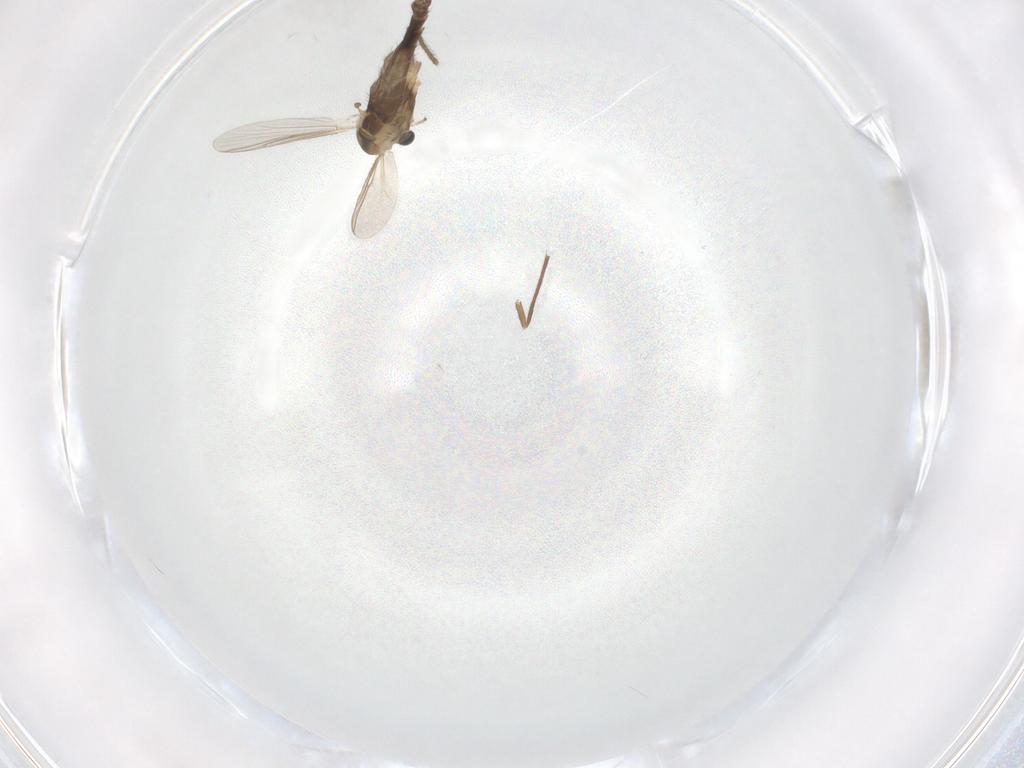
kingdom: Animalia
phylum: Arthropoda
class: Insecta
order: Diptera
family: Chironomidae
